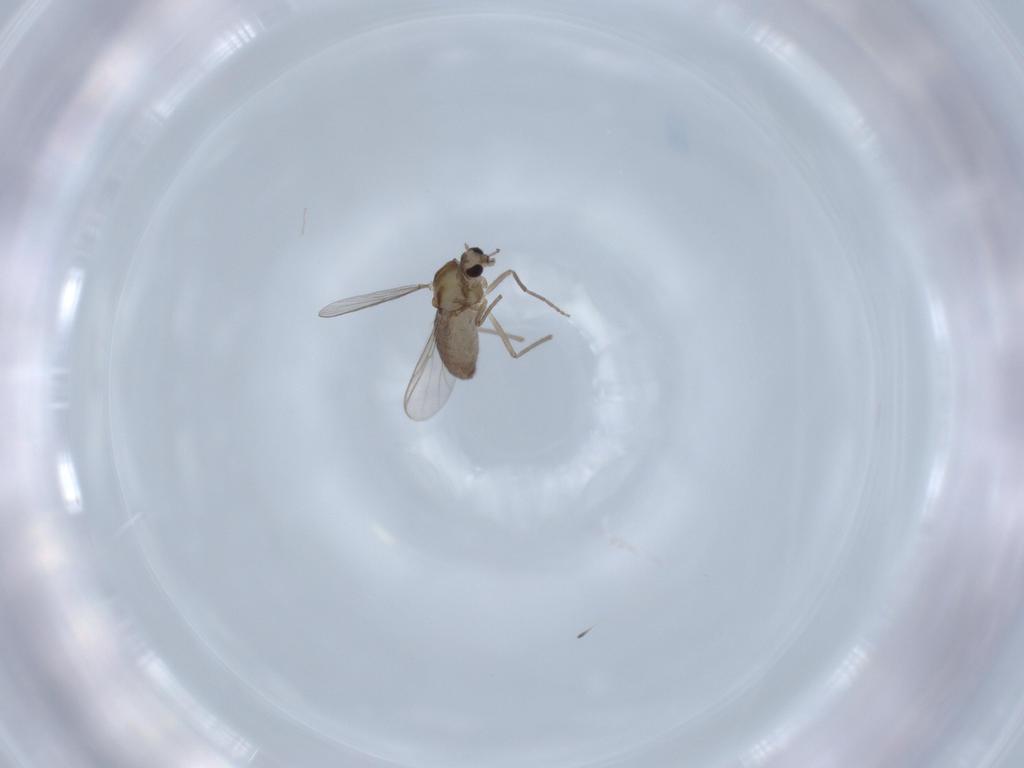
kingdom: Animalia
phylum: Arthropoda
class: Insecta
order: Diptera
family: Chironomidae
